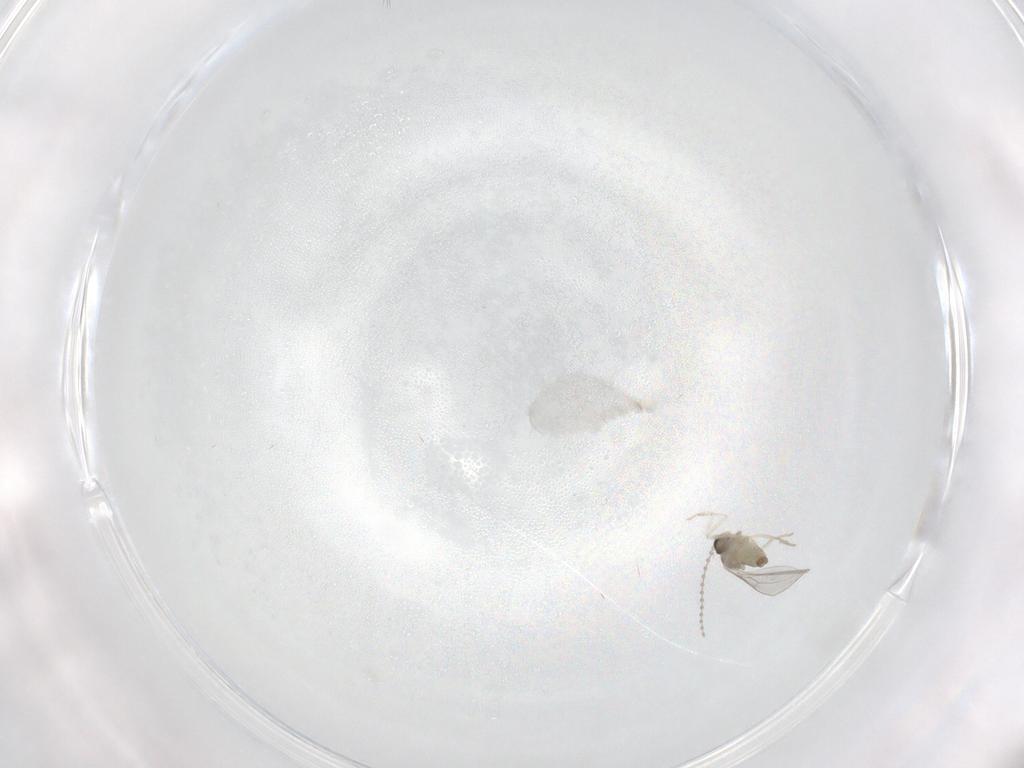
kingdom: Animalia
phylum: Arthropoda
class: Insecta
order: Diptera
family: Cecidomyiidae
